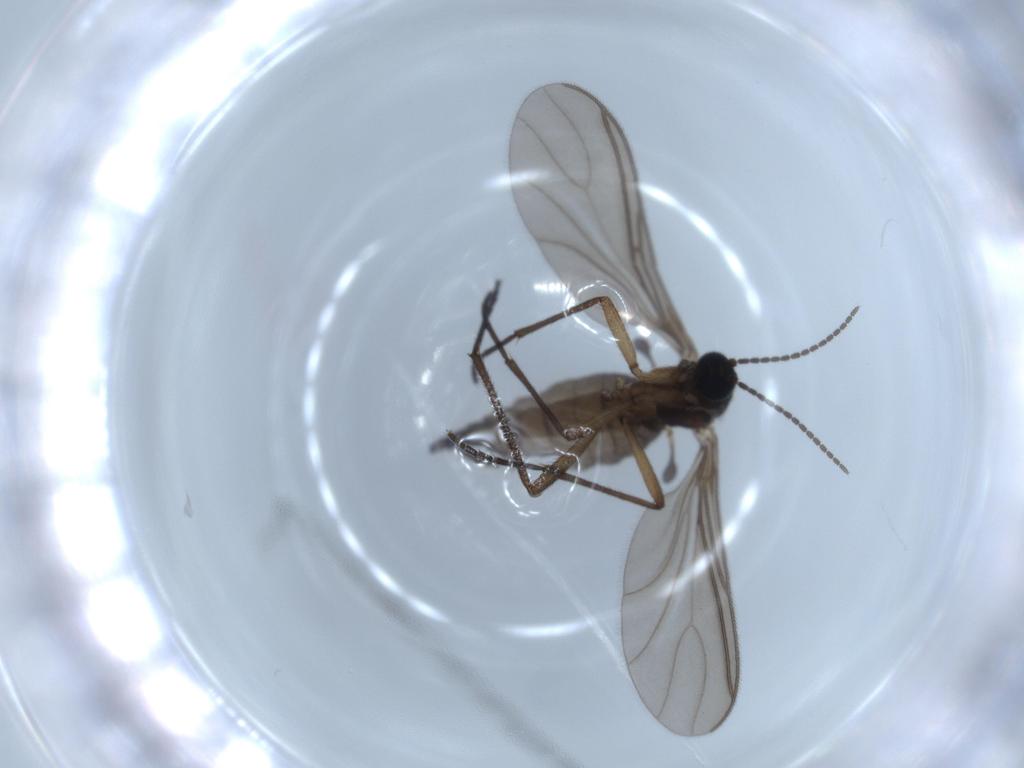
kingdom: Animalia
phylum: Arthropoda
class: Insecta
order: Diptera
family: Sciaridae
